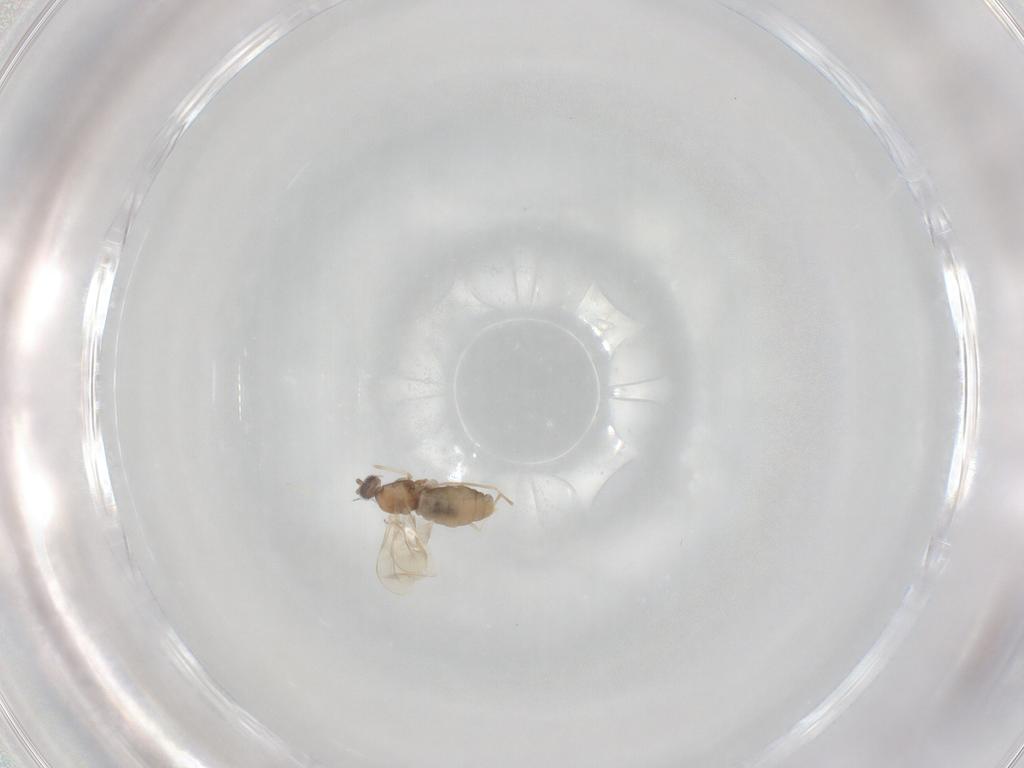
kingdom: Animalia
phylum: Arthropoda
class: Insecta
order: Diptera
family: Cecidomyiidae
